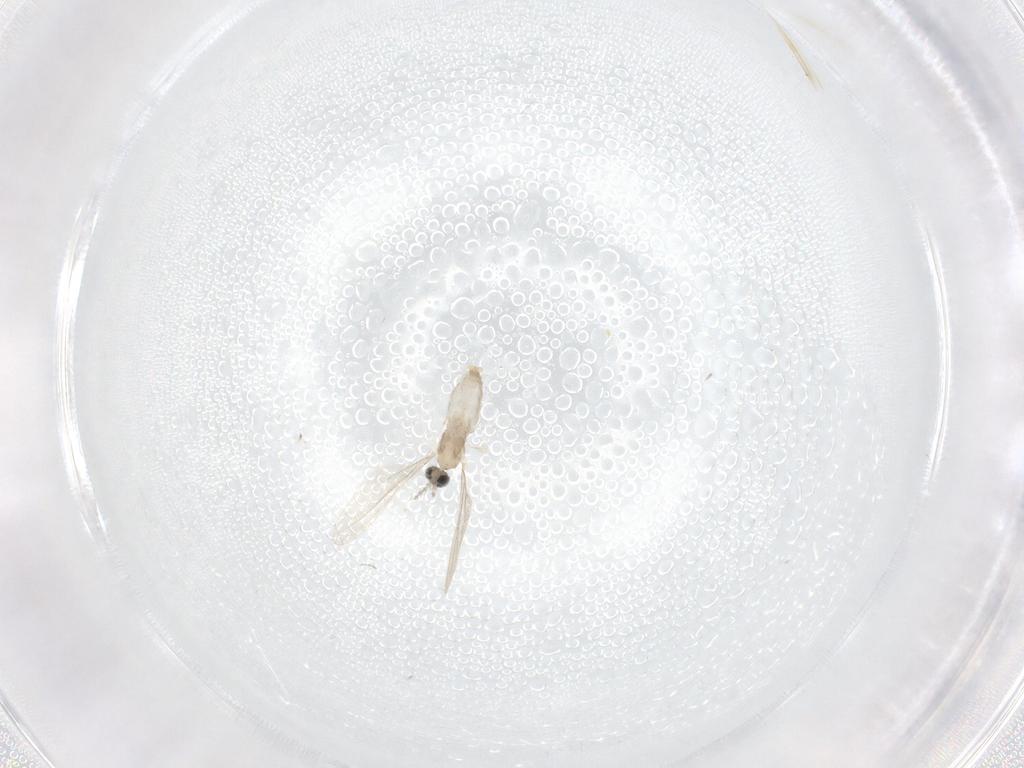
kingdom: Animalia
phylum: Arthropoda
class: Insecta
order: Diptera
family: Cecidomyiidae
